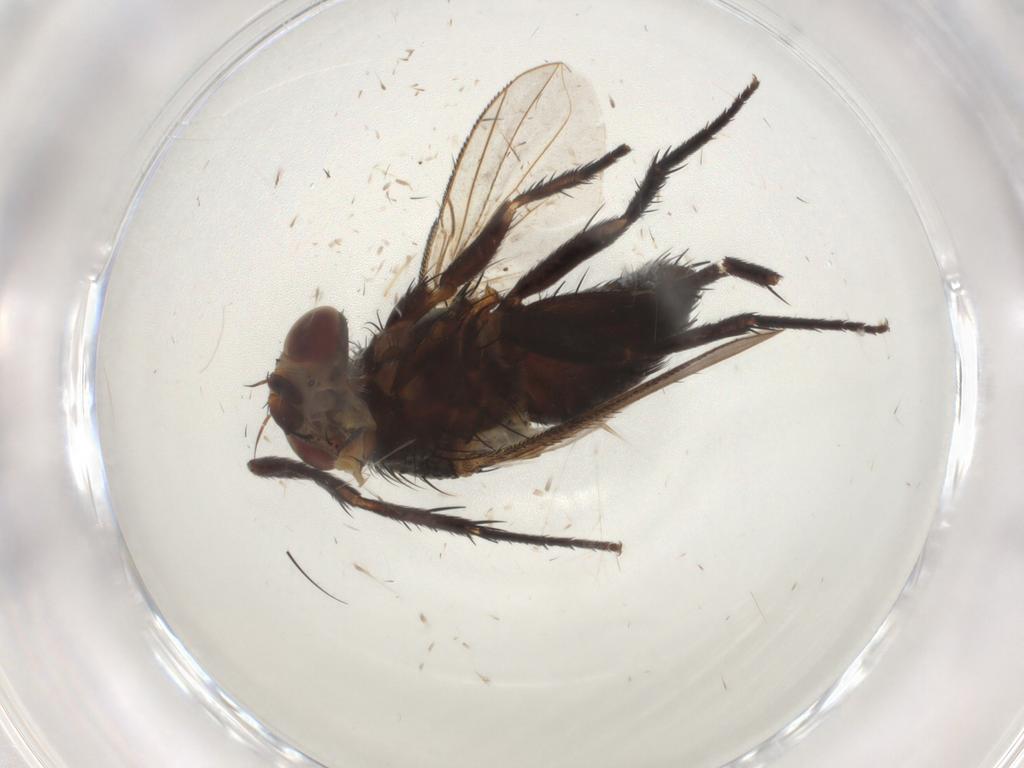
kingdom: Animalia
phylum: Arthropoda
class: Insecta
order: Diptera
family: Tachinidae
